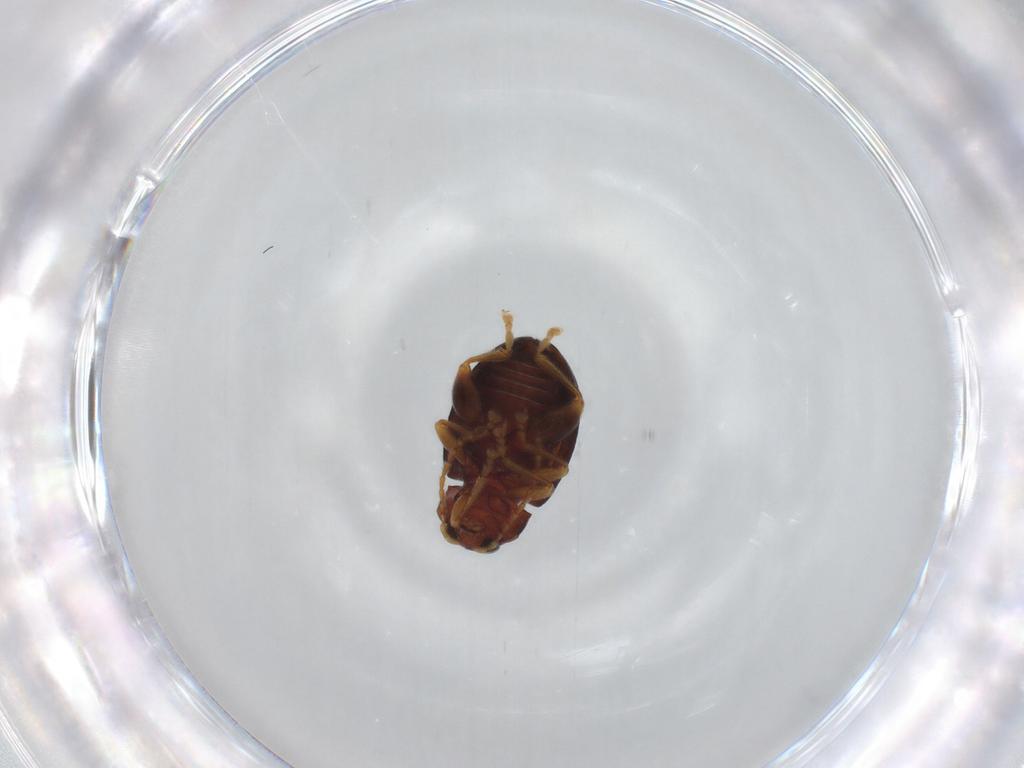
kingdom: Animalia
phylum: Arthropoda
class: Insecta
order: Coleoptera
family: Chrysomelidae
